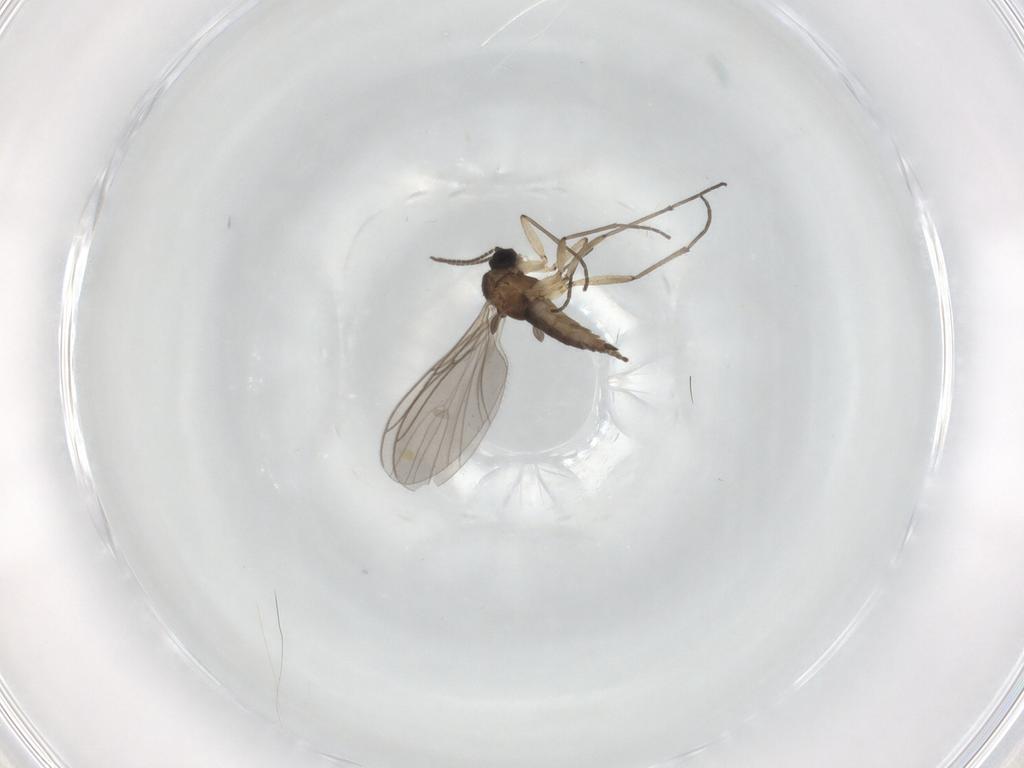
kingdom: Animalia
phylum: Arthropoda
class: Insecta
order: Diptera
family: Sciaridae
